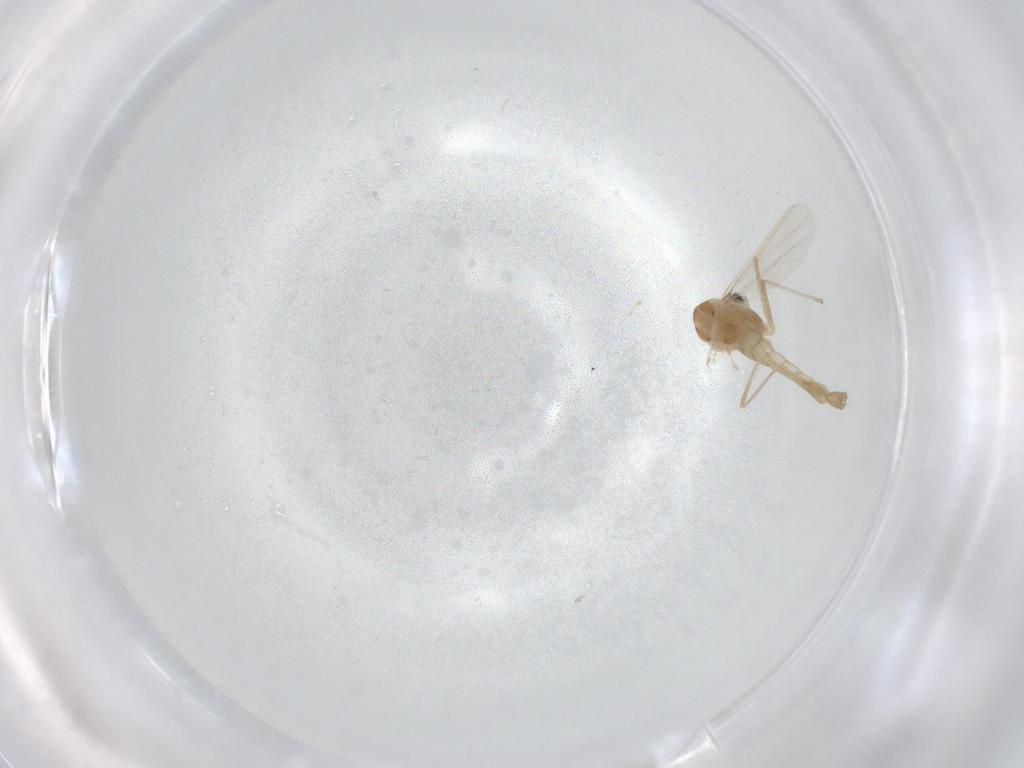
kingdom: Animalia
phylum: Arthropoda
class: Insecta
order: Diptera
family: Chironomidae
